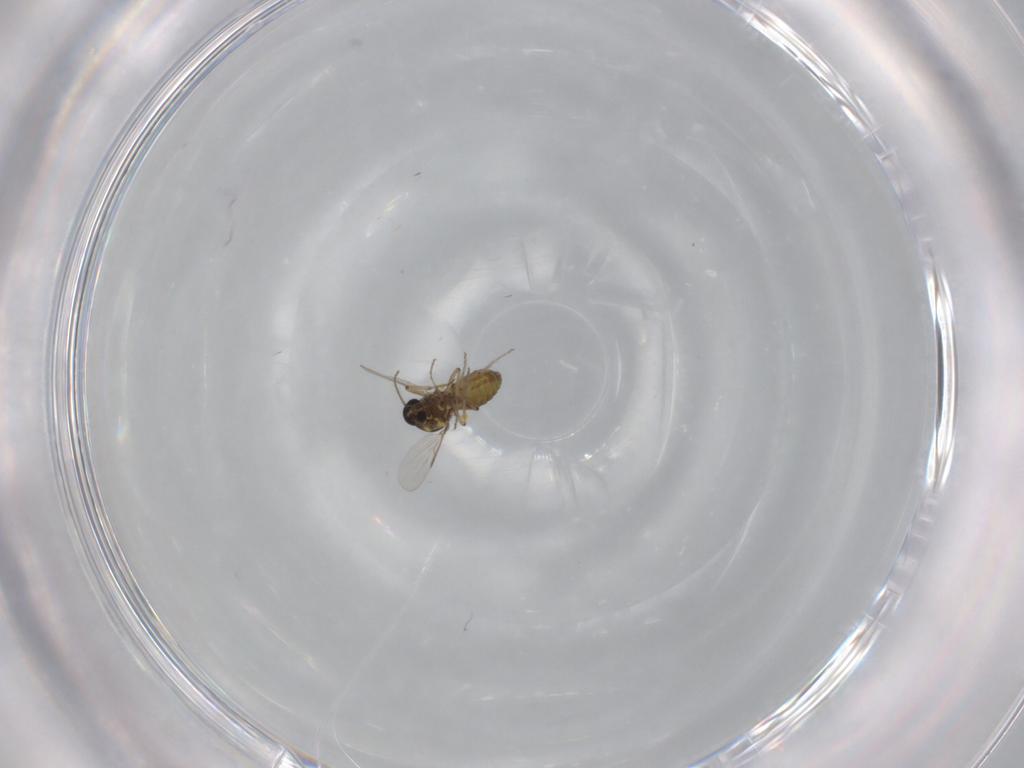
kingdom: Animalia
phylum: Arthropoda
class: Insecta
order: Diptera
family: Ceratopogonidae
